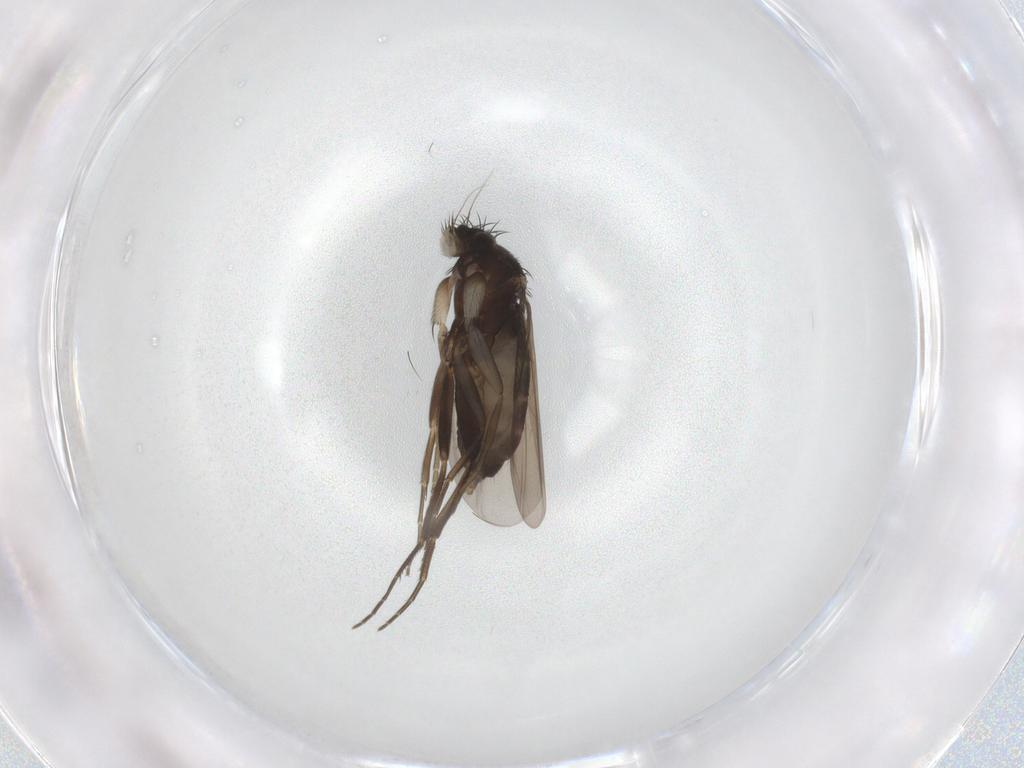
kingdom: Animalia
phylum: Arthropoda
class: Insecta
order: Diptera
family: Phoridae
